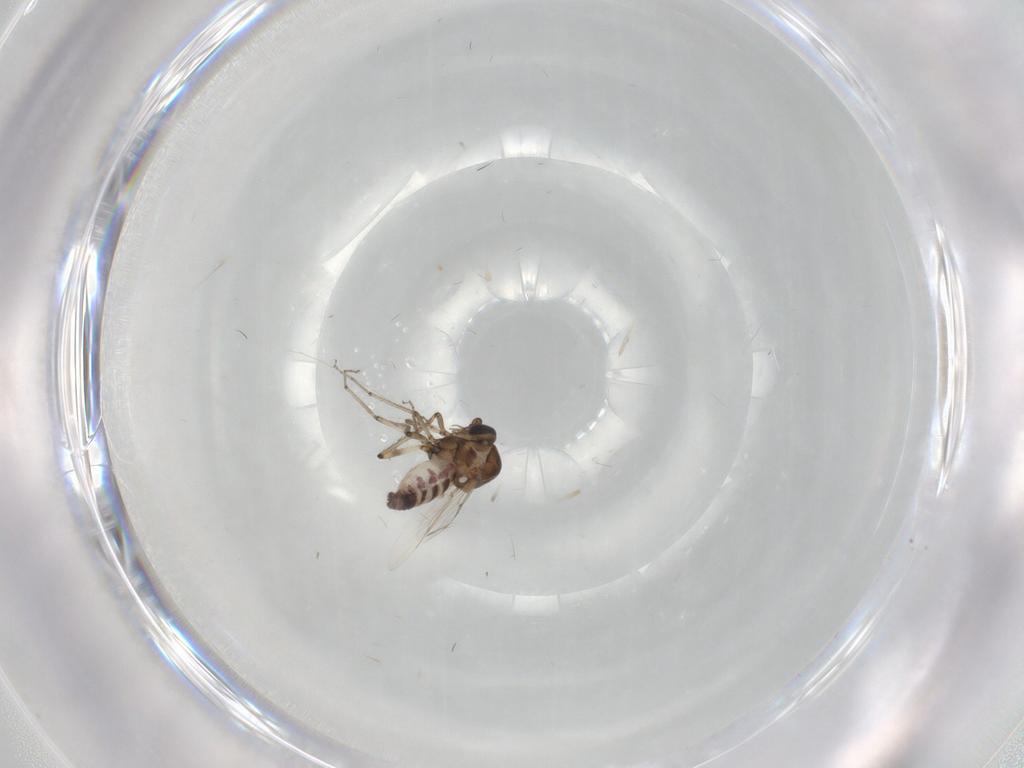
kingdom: Animalia
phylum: Arthropoda
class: Insecta
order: Diptera
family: Ceratopogonidae
